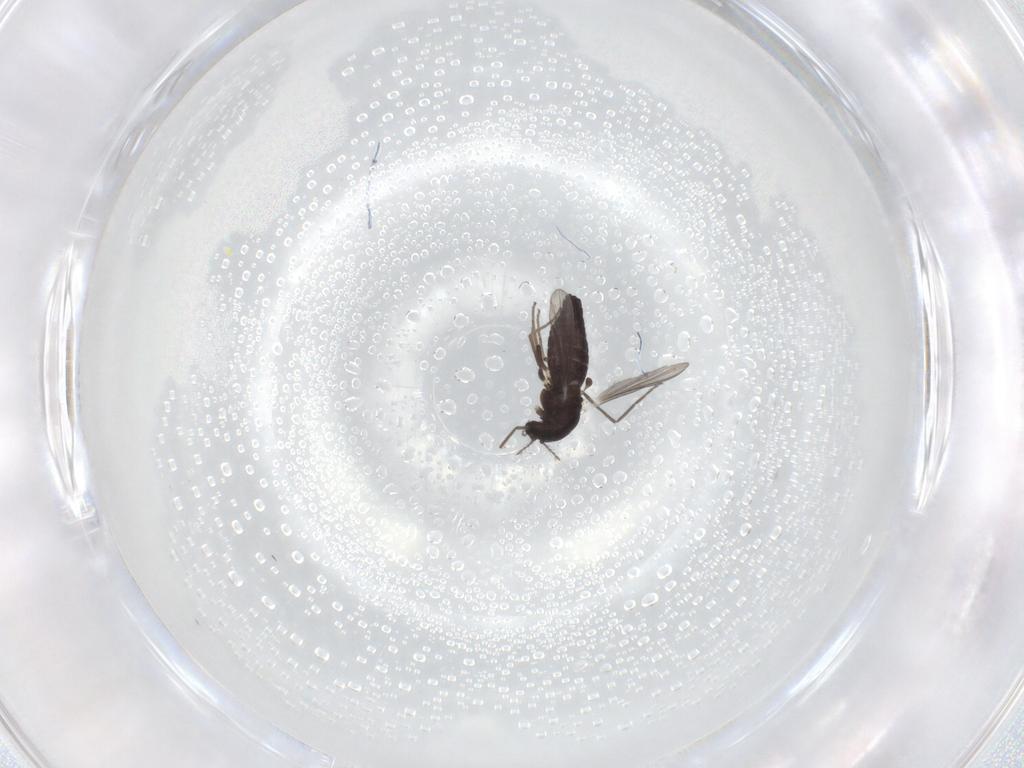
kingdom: Animalia
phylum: Arthropoda
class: Insecta
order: Diptera
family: Chironomidae
